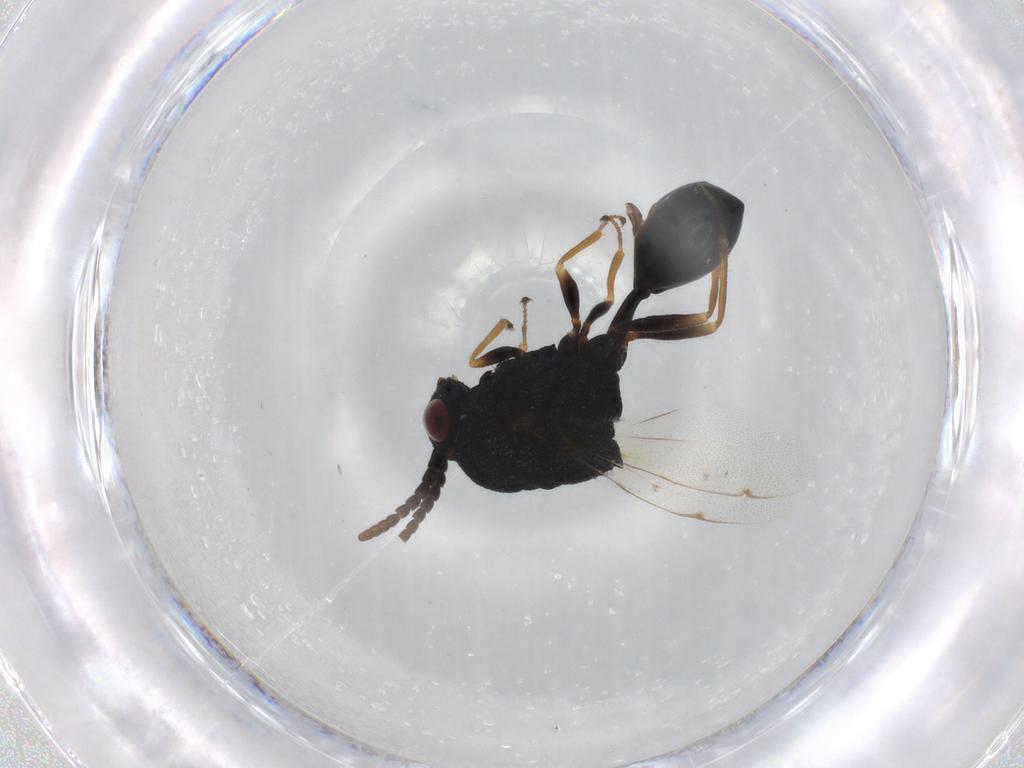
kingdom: Animalia
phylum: Arthropoda
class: Insecta
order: Hymenoptera
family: Eucharitidae
